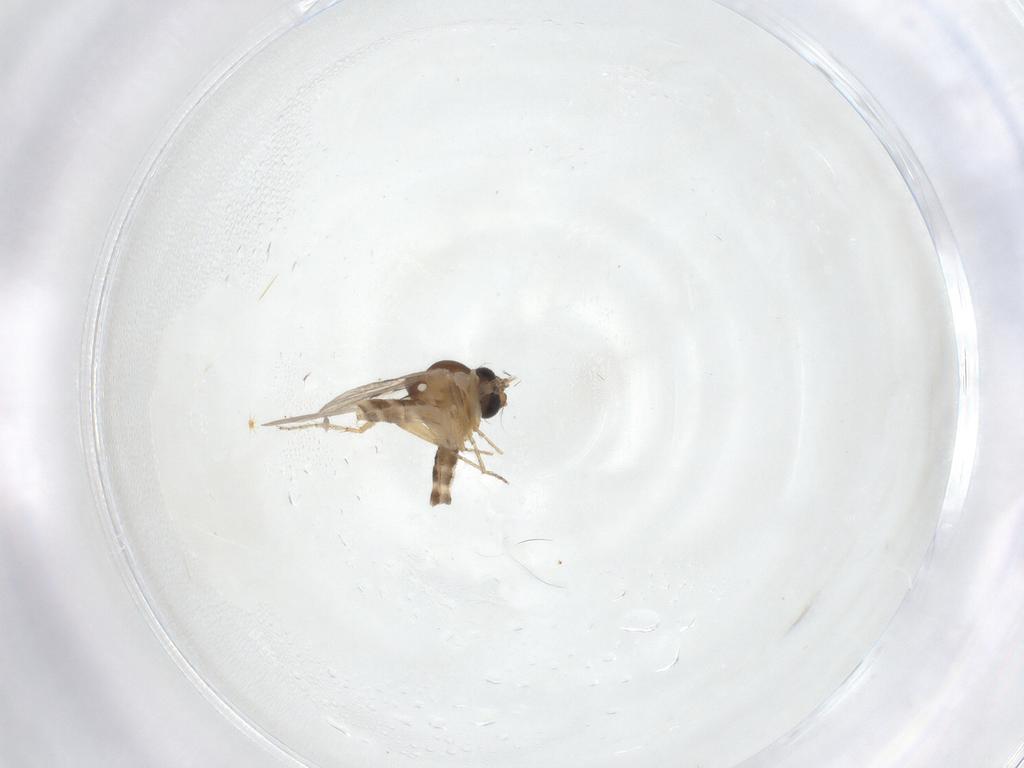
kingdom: Animalia
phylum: Arthropoda
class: Insecta
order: Diptera
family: Ceratopogonidae
